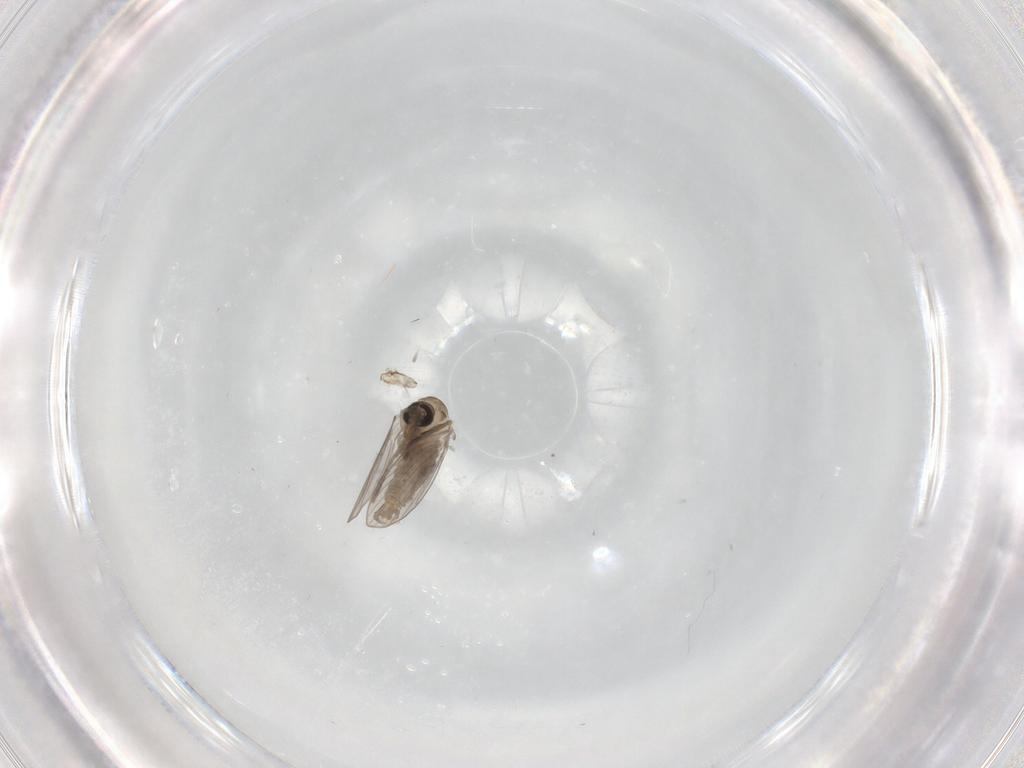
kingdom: Animalia
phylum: Arthropoda
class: Insecta
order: Diptera
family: Psychodidae
